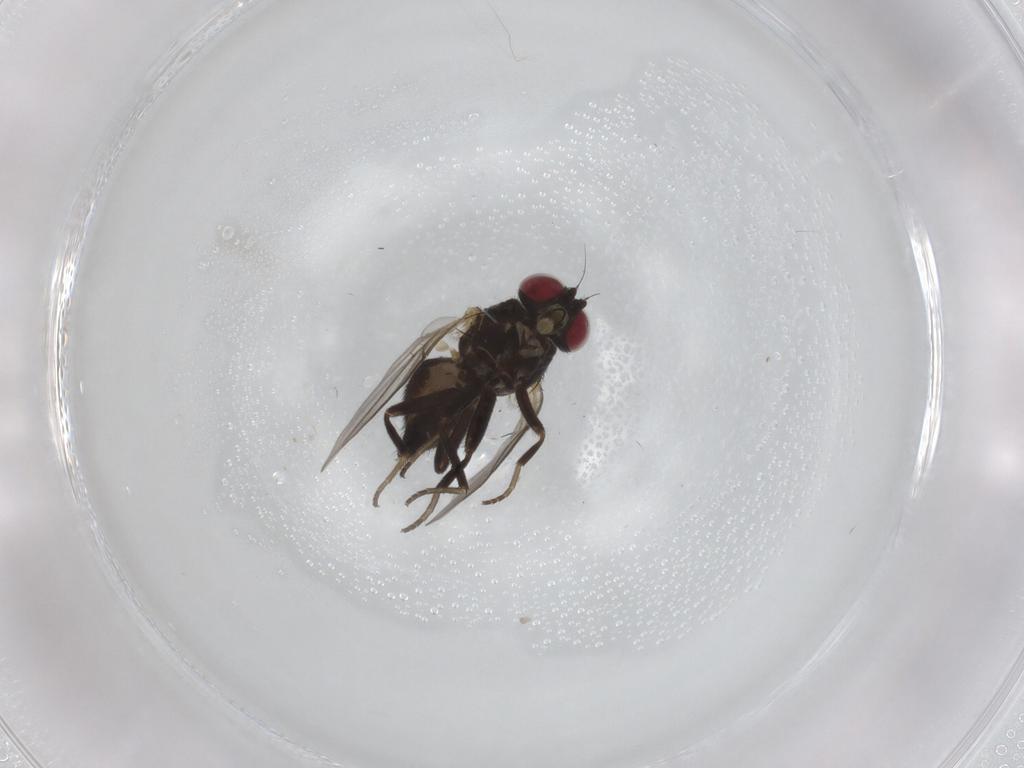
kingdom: Animalia
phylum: Arthropoda
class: Insecta
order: Diptera
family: Agromyzidae
